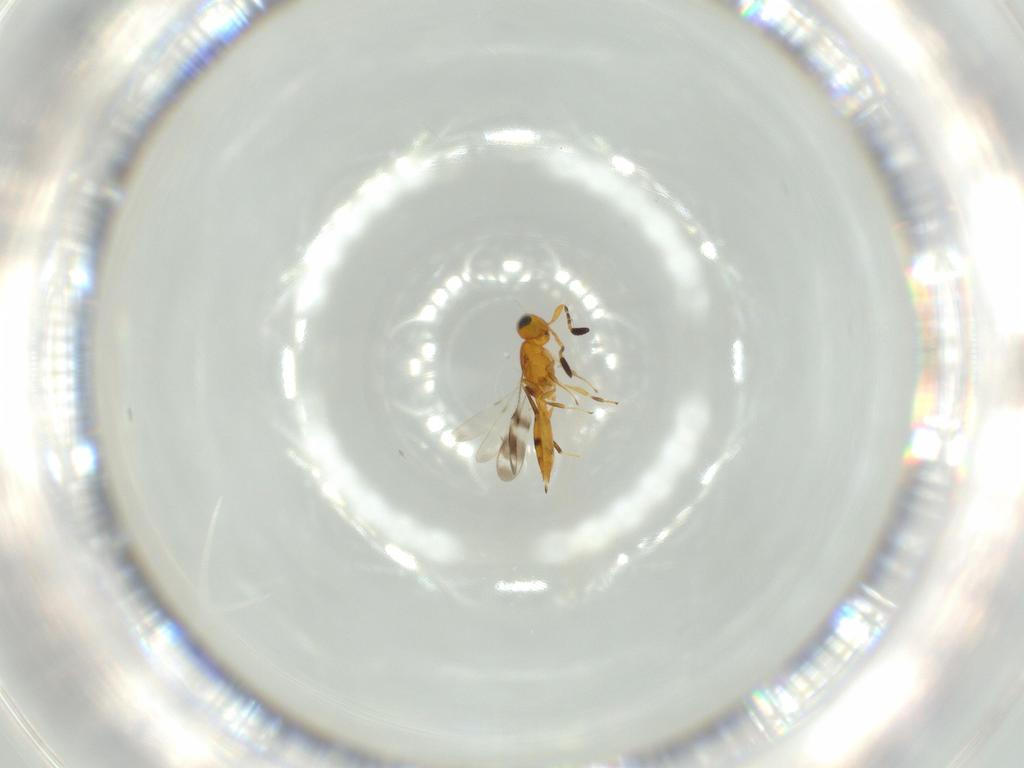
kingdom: Animalia
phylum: Arthropoda
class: Insecta
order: Hymenoptera
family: Scelionidae
